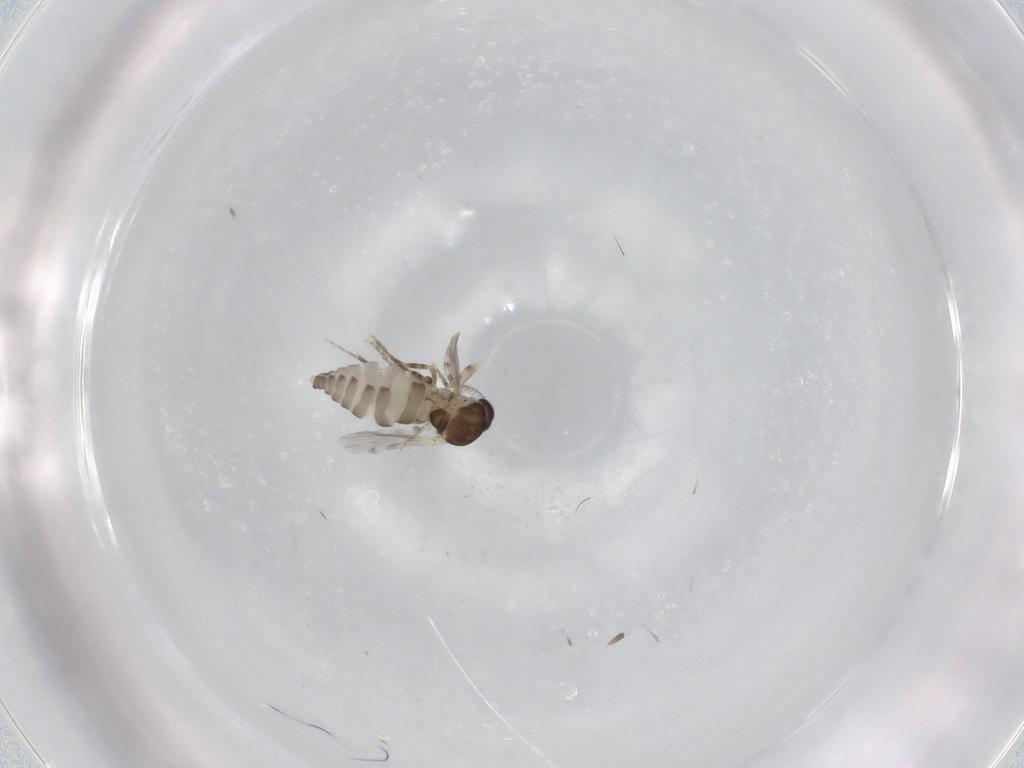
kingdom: Animalia
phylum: Arthropoda
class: Insecta
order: Diptera
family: Ceratopogonidae
